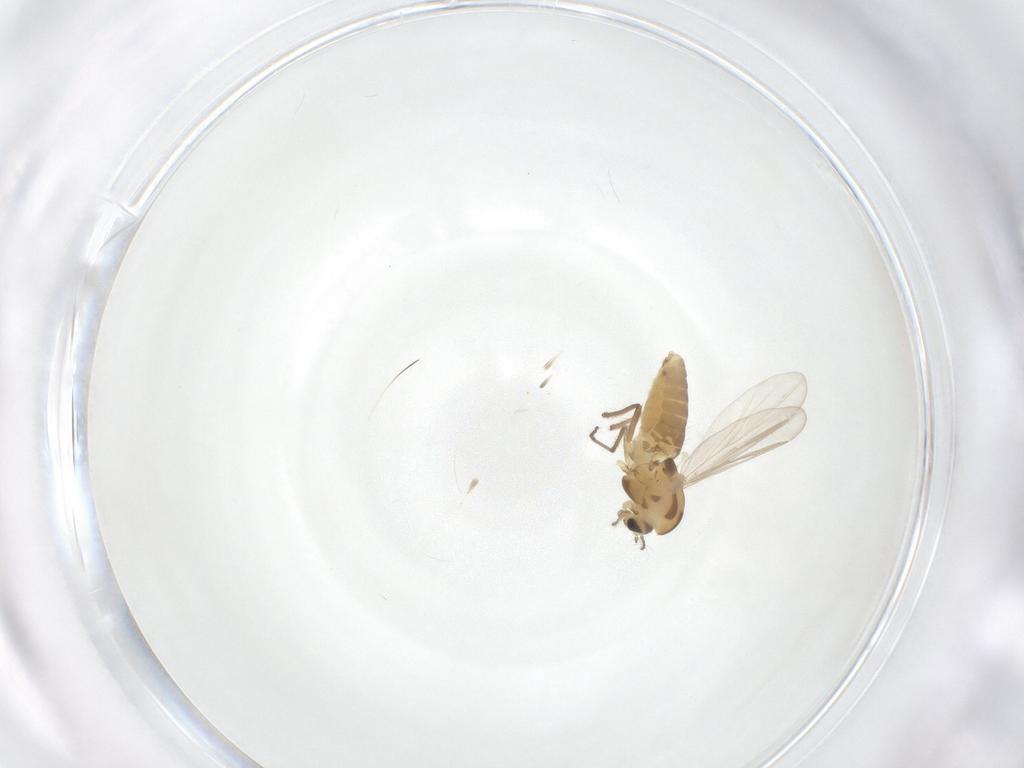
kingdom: Animalia
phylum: Arthropoda
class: Insecta
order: Diptera
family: Chironomidae
